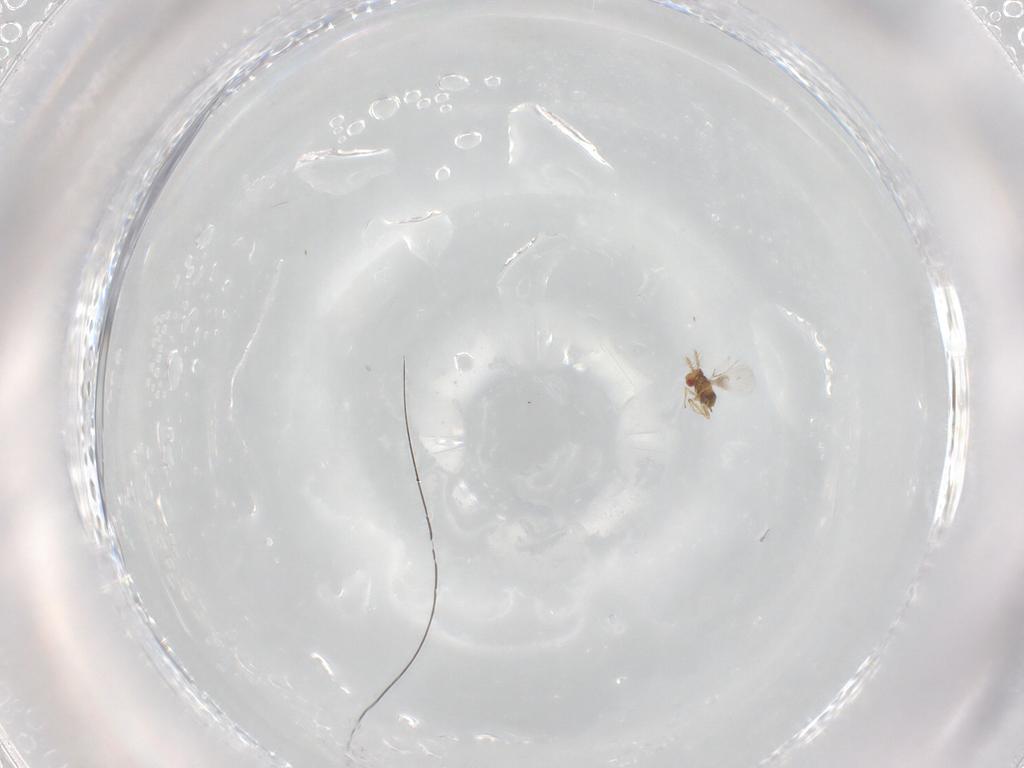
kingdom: Animalia
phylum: Arthropoda
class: Insecta
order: Hymenoptera
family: Trichogrammatidae
